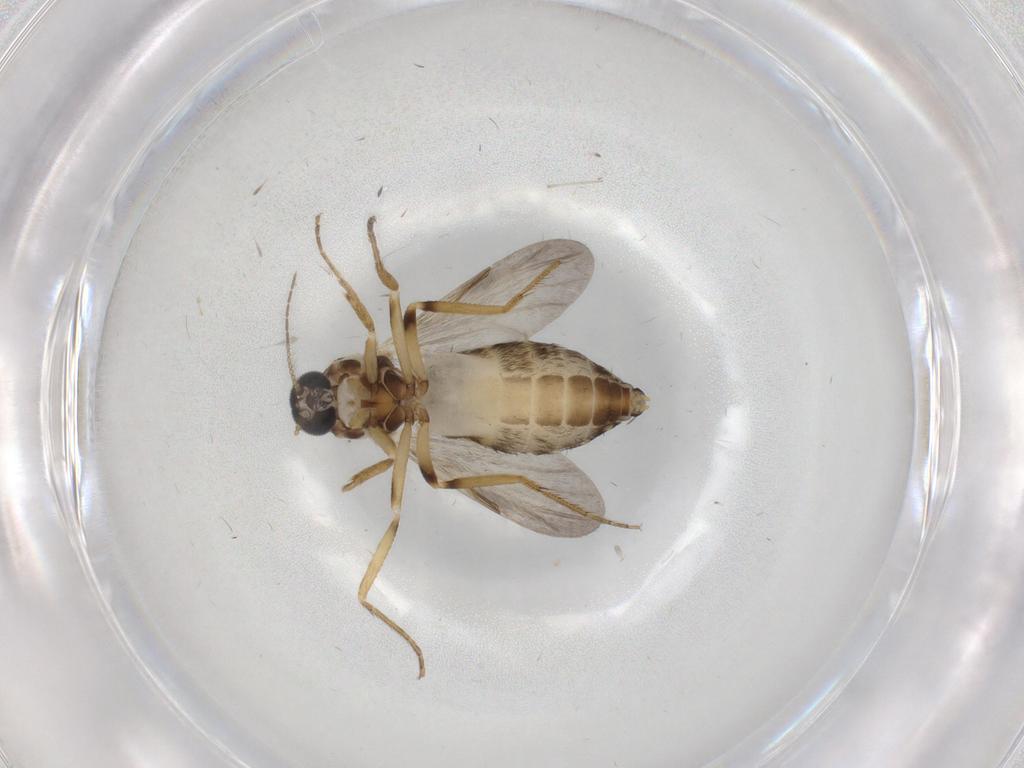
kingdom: Animalia
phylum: Arthropoda
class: Insecta
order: Diptera
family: Ceratopogonidae
